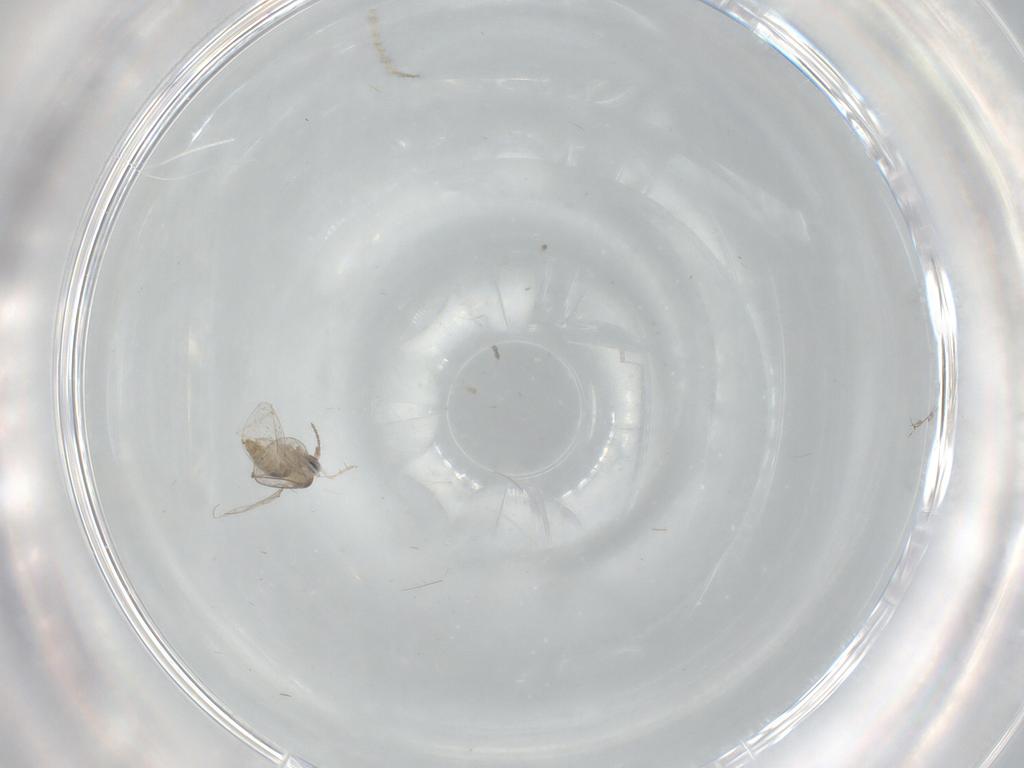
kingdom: Animalia
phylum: Arthropoda
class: Insecta
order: Diptera
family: Cecidomyiidae
